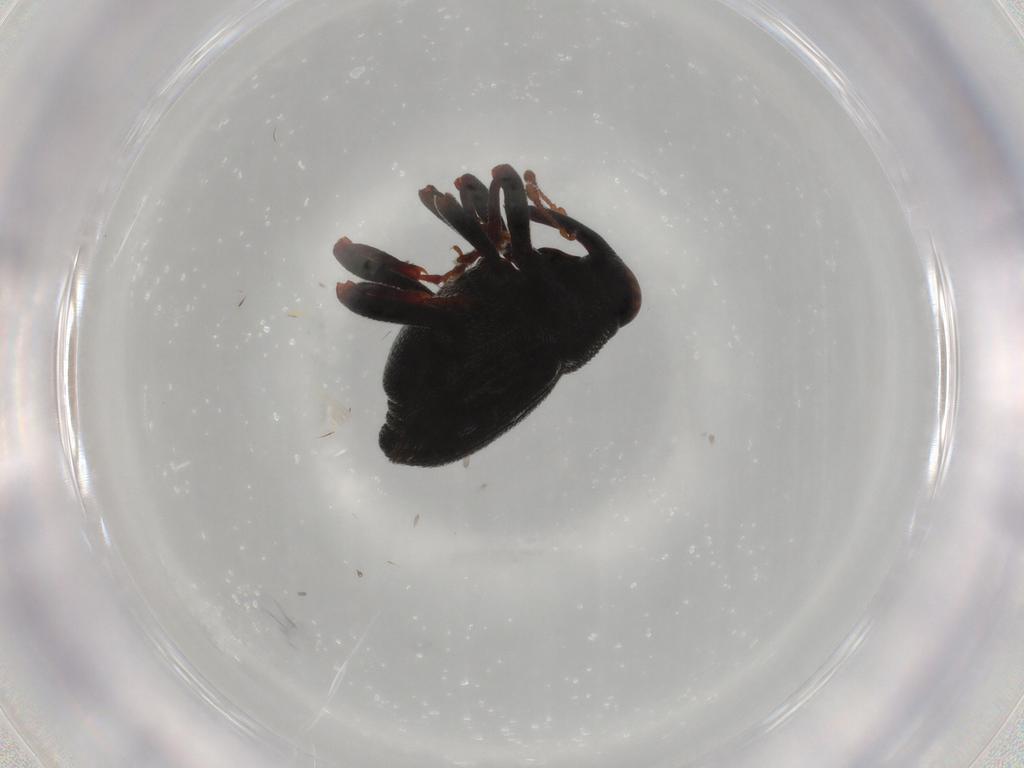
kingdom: Animalia
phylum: Arthropoda
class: Insecta
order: Coleoptera
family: Curculionidae
